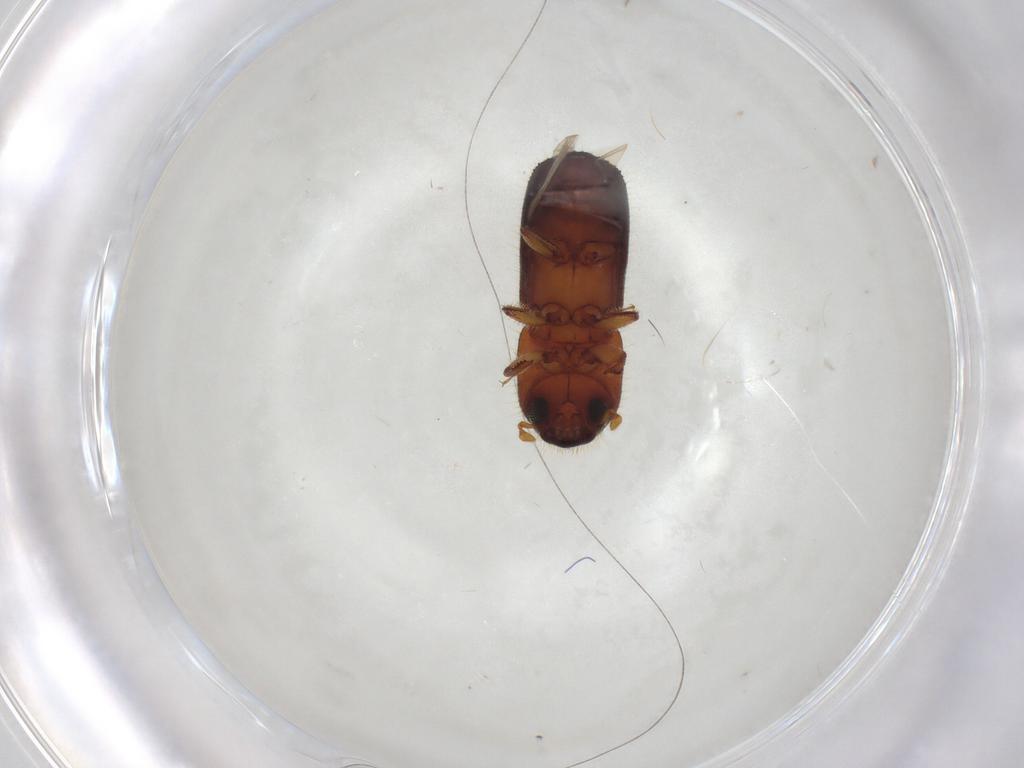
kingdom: Animalia
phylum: Arthropoda
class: Insecta
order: Coleoptera
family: Curculionidae
